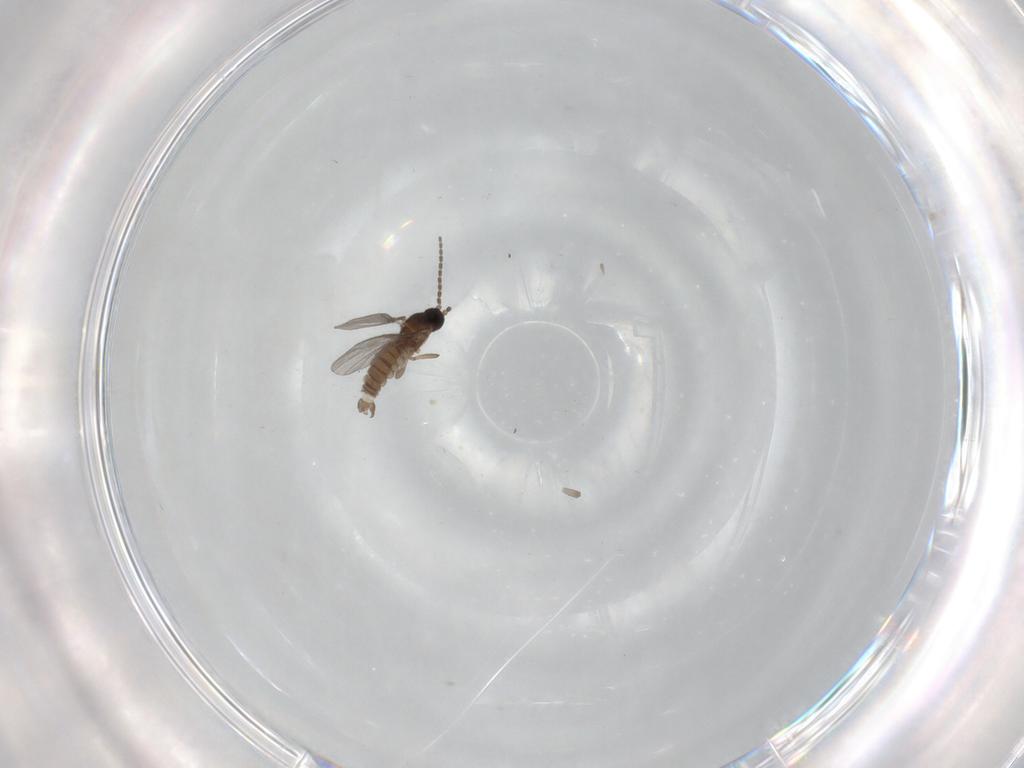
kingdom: Animalia
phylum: Arthropoda
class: Insecta
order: Diptera
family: Sciaridae
